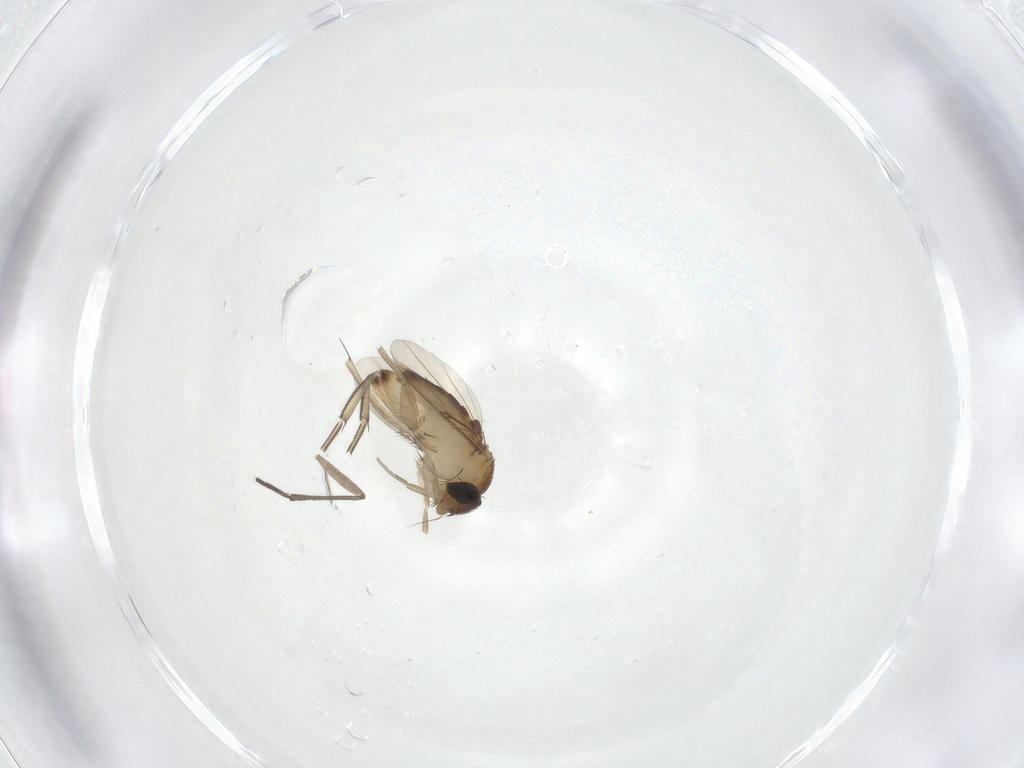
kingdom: Animalia
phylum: Arthropoda
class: Insecta
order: Diptera
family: Phoridae
